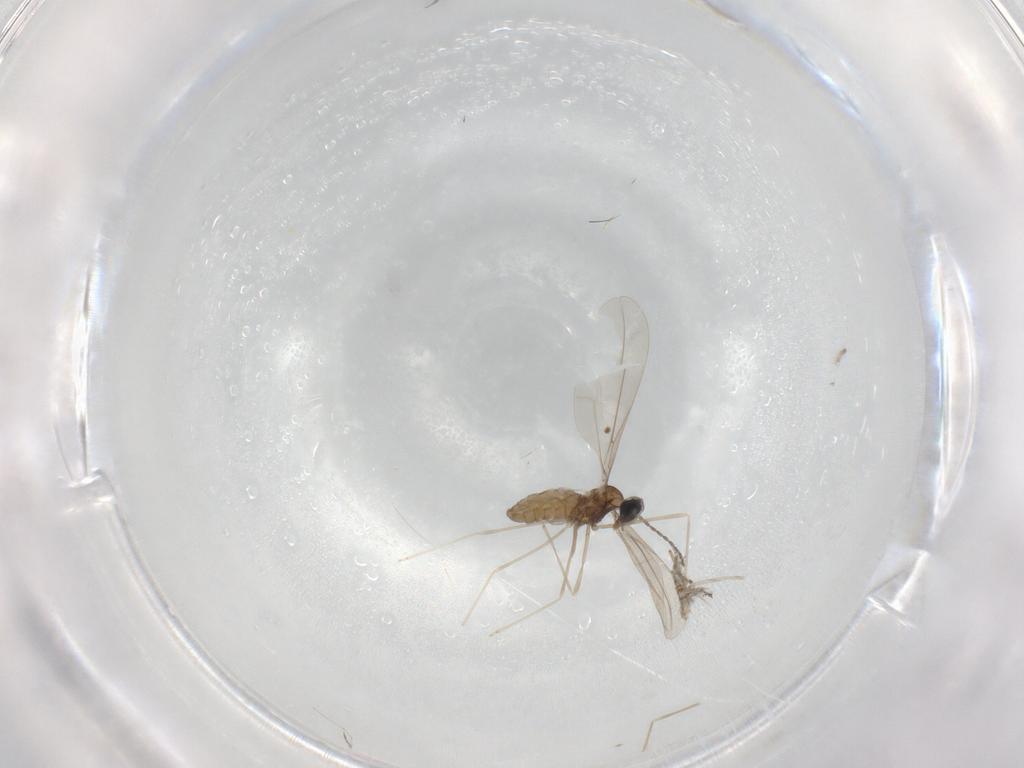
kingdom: Animalia
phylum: Arthropoda
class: Insecta
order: Diptera
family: Cecidomyiidae
